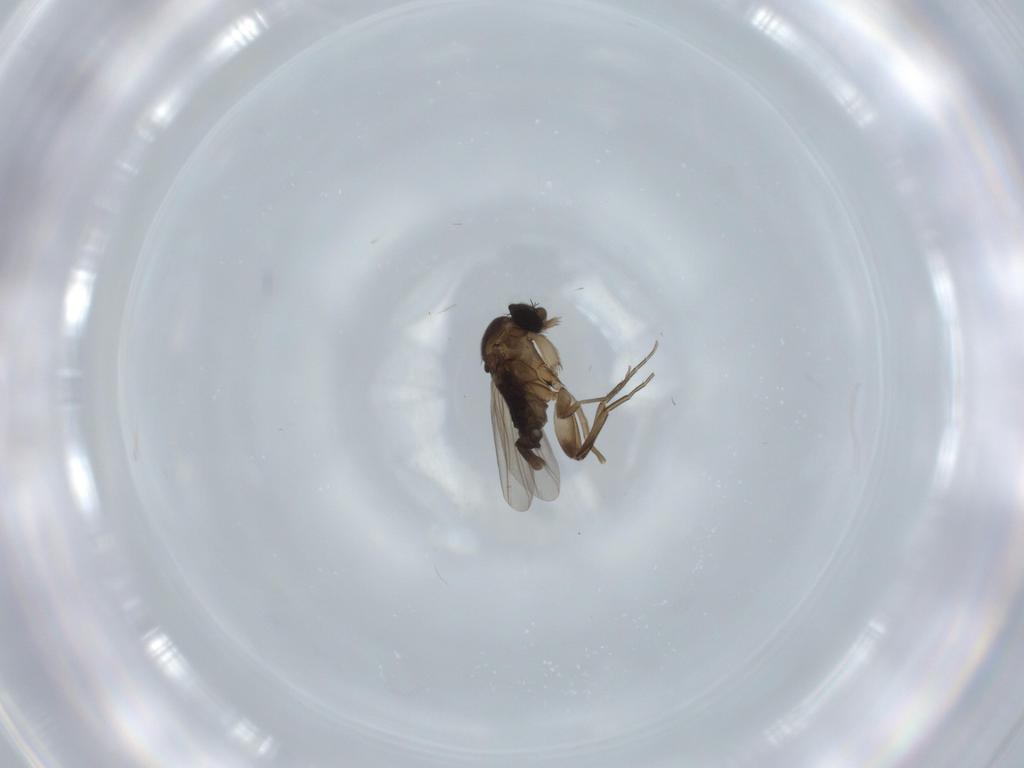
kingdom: Animalia
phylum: Arthropoda
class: Insecta
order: Diptera
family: Phoridae
